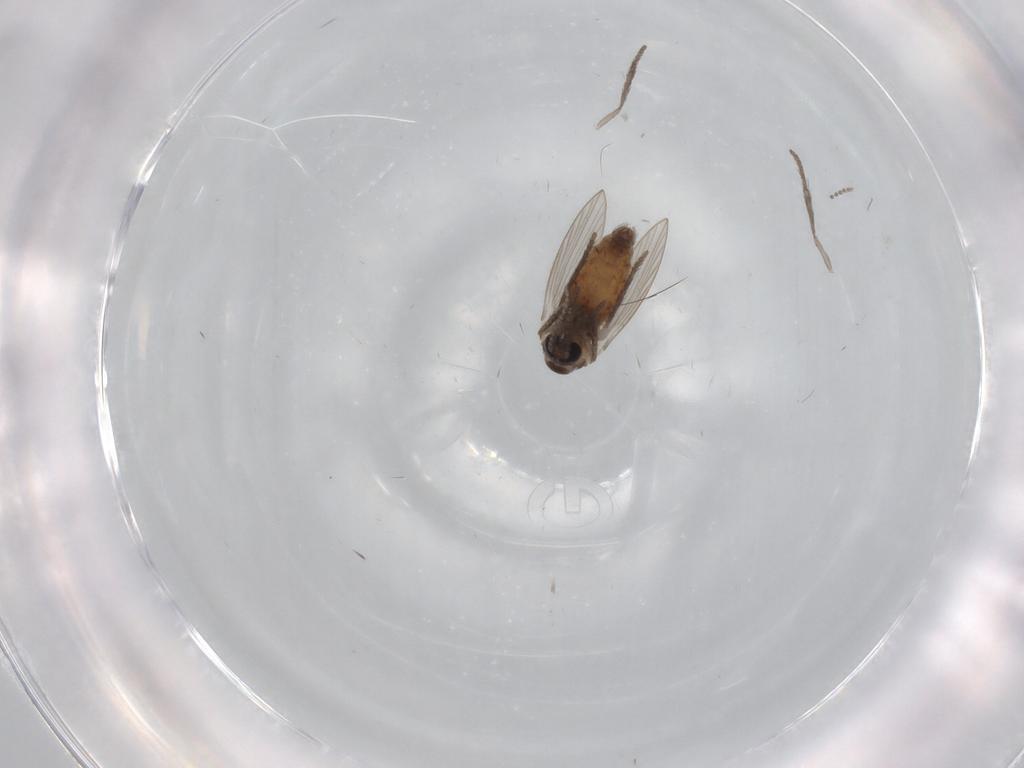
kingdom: Animalia
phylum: Arthropoda
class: Insecta
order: Diptera
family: Psychodidae
